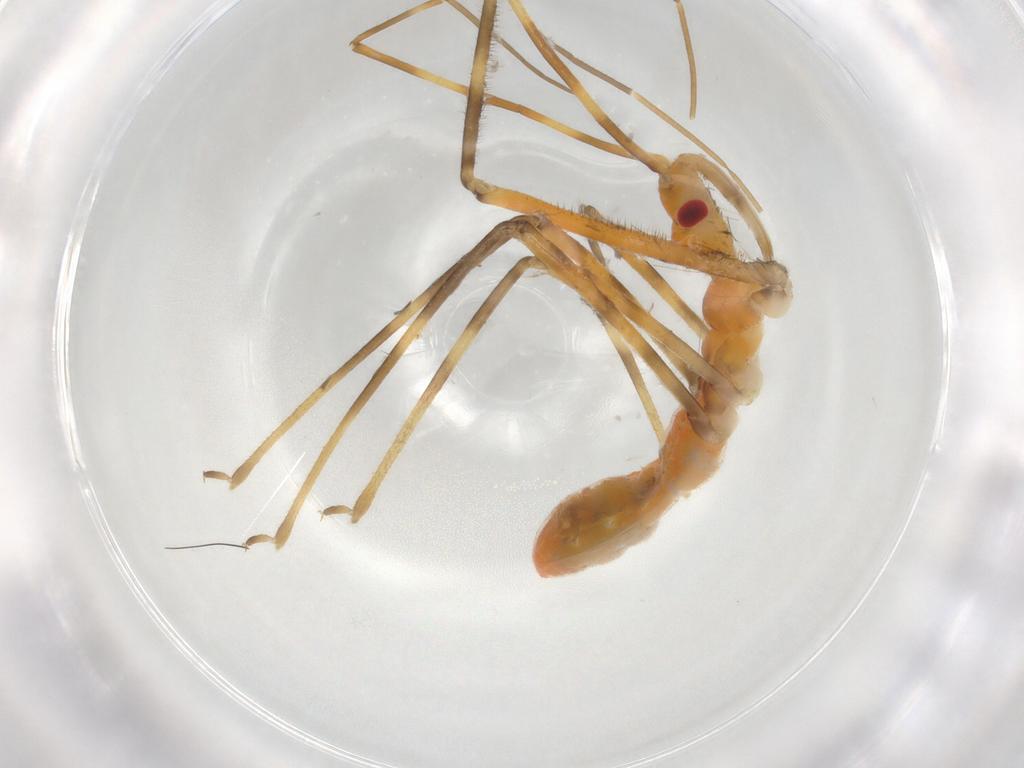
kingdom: Animalia
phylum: Arthropoda
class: Insecta
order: Hemiptera
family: Reduviidae
